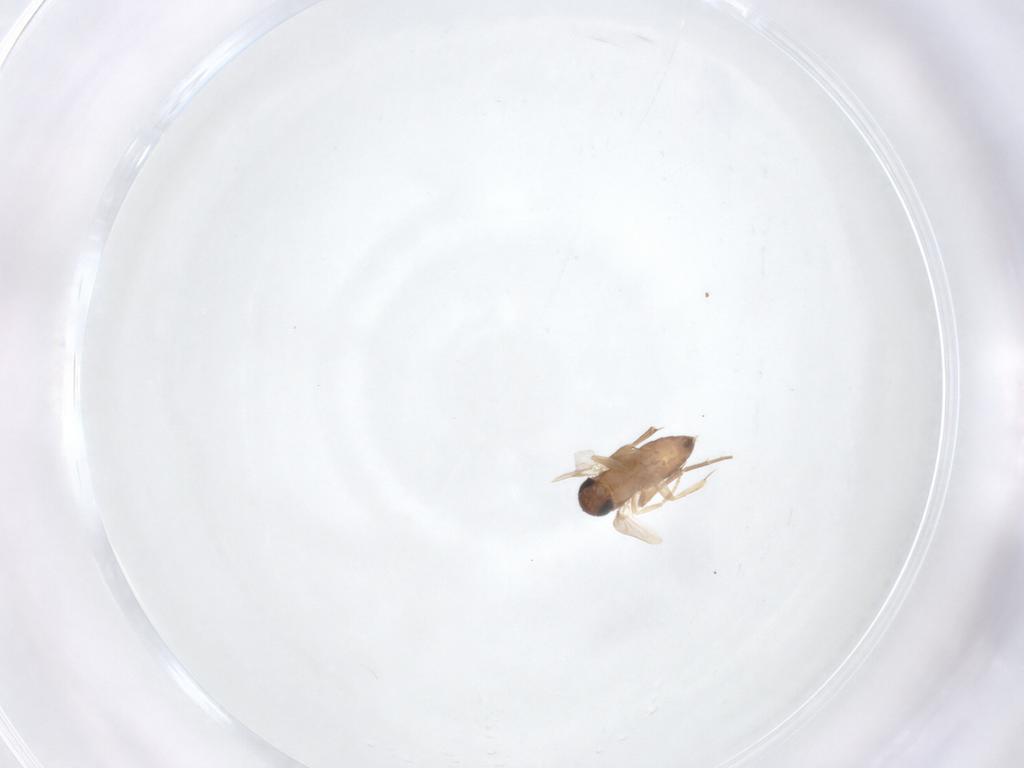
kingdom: Animalia
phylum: Arthropoda
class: Insecta
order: Diptera
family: Phoridae
